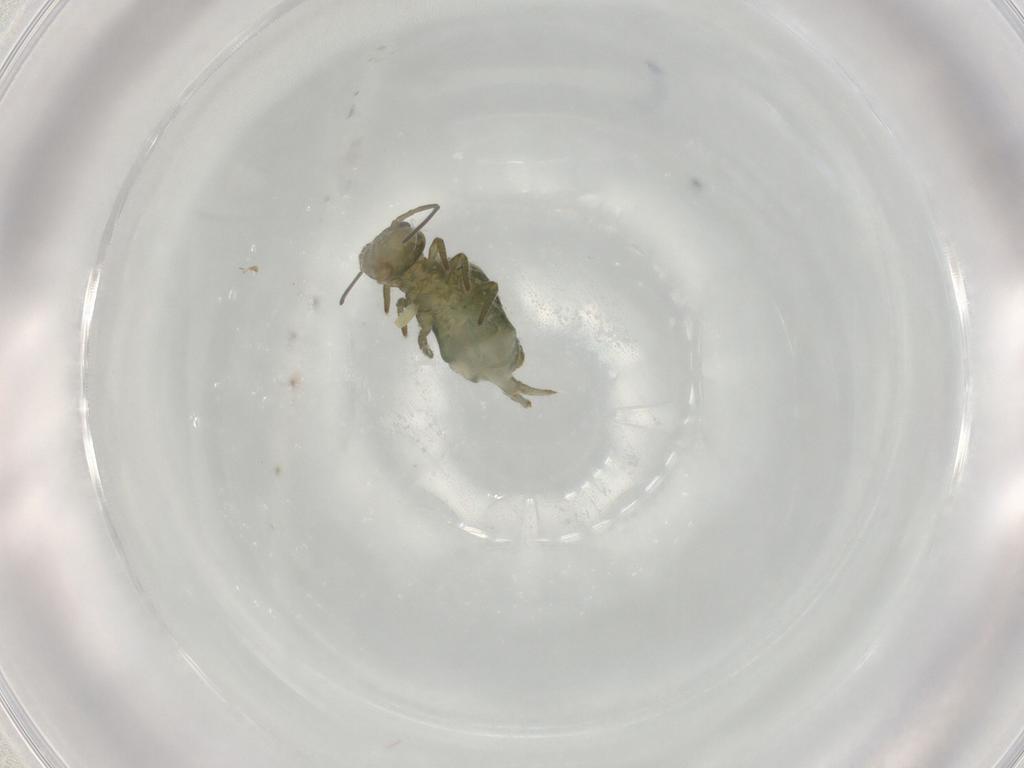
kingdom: Animalia
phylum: Arthropoda
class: Collembola
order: Symphypleona
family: Sminthuridae
